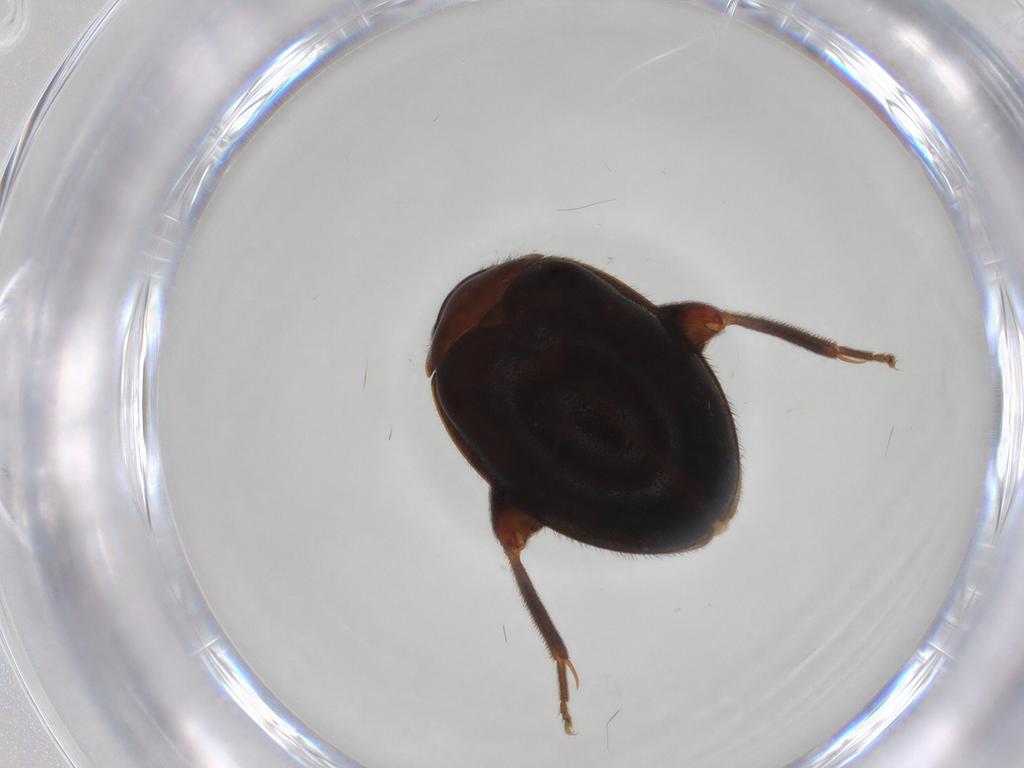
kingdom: Animalia
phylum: Arthropoda
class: Insecta
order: Coleoptera
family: Scirtidae
